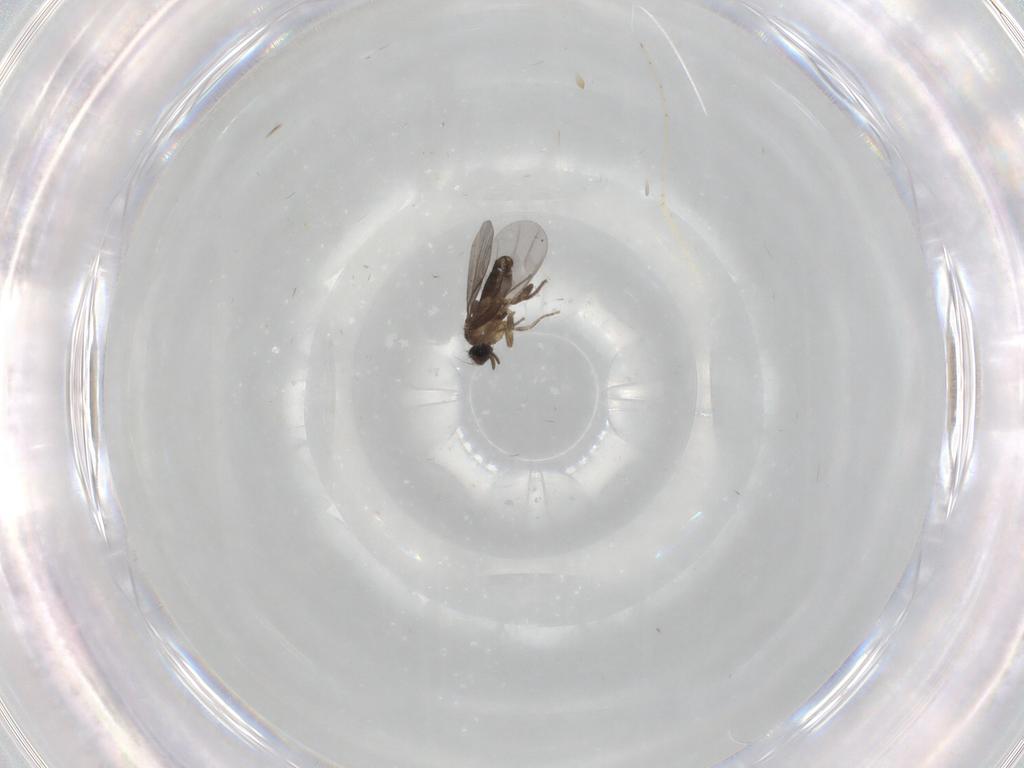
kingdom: Animalia
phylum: Arthropoda
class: Insecta
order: Diptera
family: Cecidomyiidae
